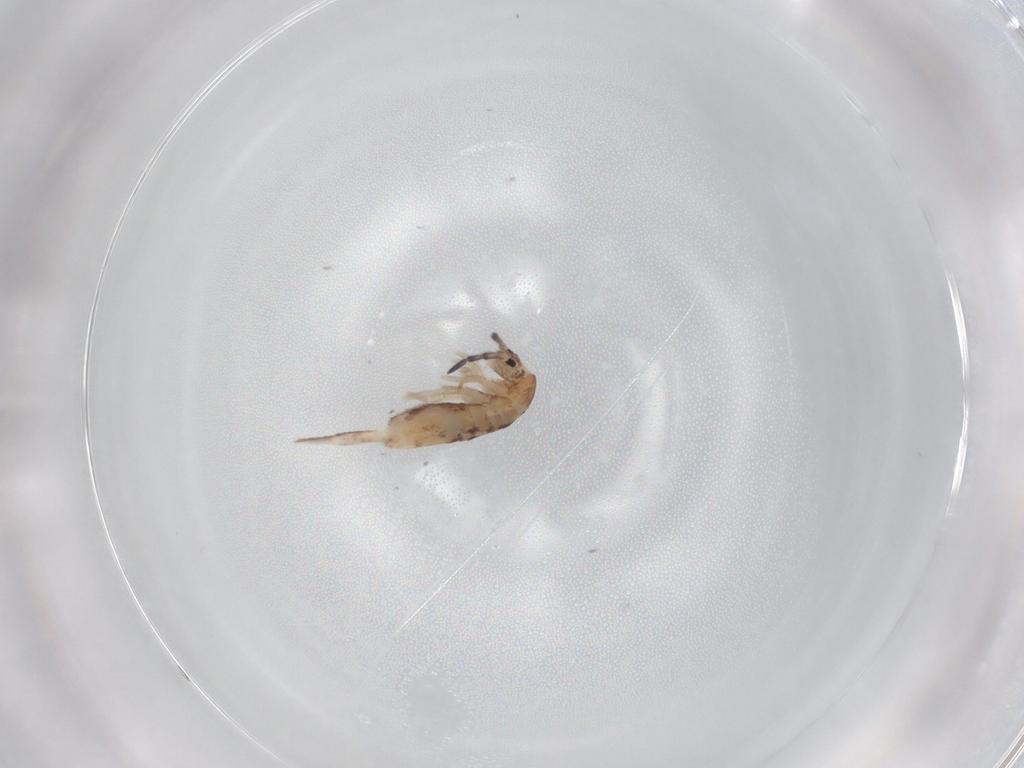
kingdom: Animalia
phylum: Arthropoda
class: Collembola
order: Entomobryomorpha
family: Entomobryidae
